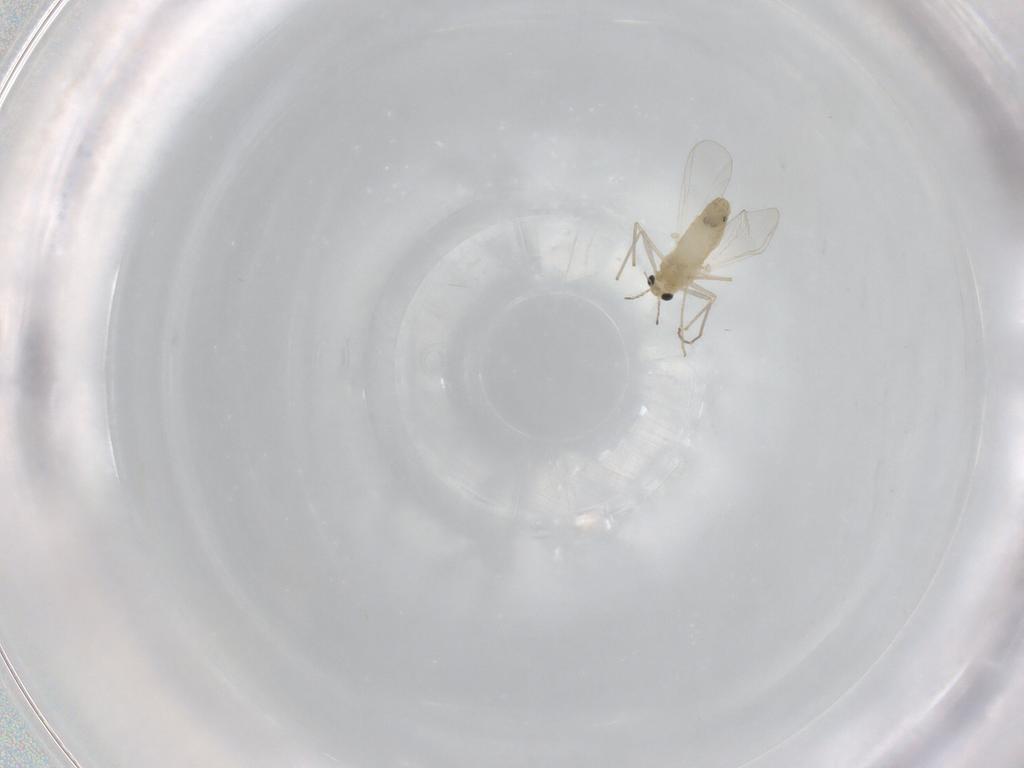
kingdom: Animalia
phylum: Arthropoda
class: Insecta
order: Diptera
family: Chironomidae
